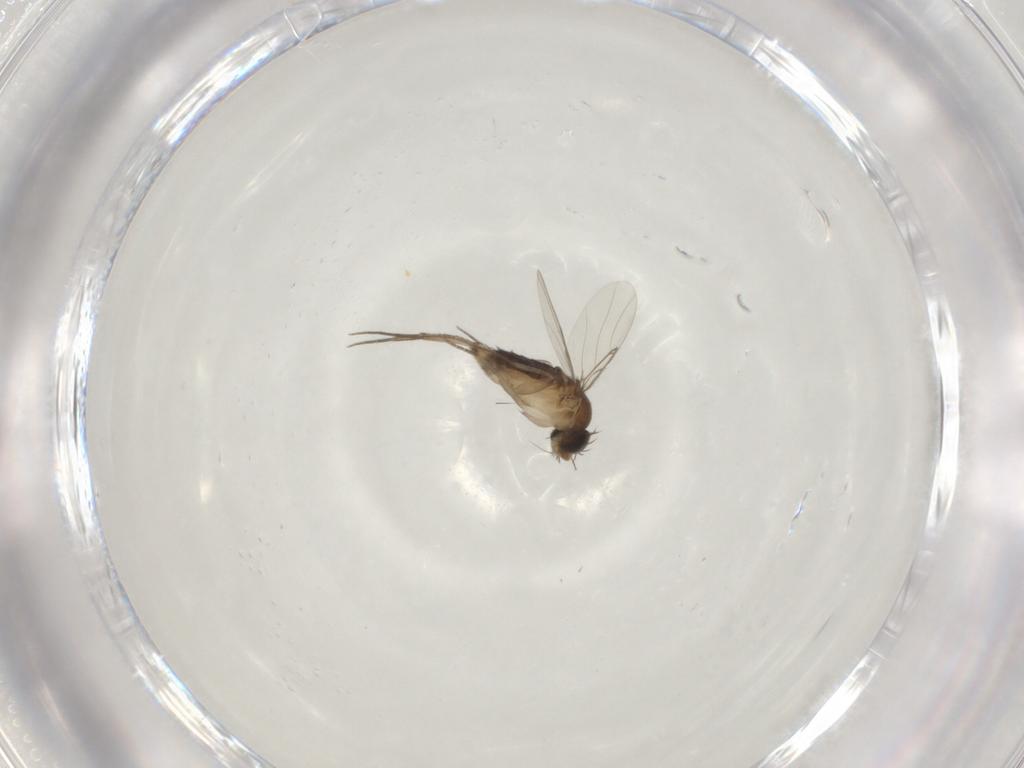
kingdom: Animalia
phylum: Arthropoda
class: Insecta
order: Diptera
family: Phoridae
